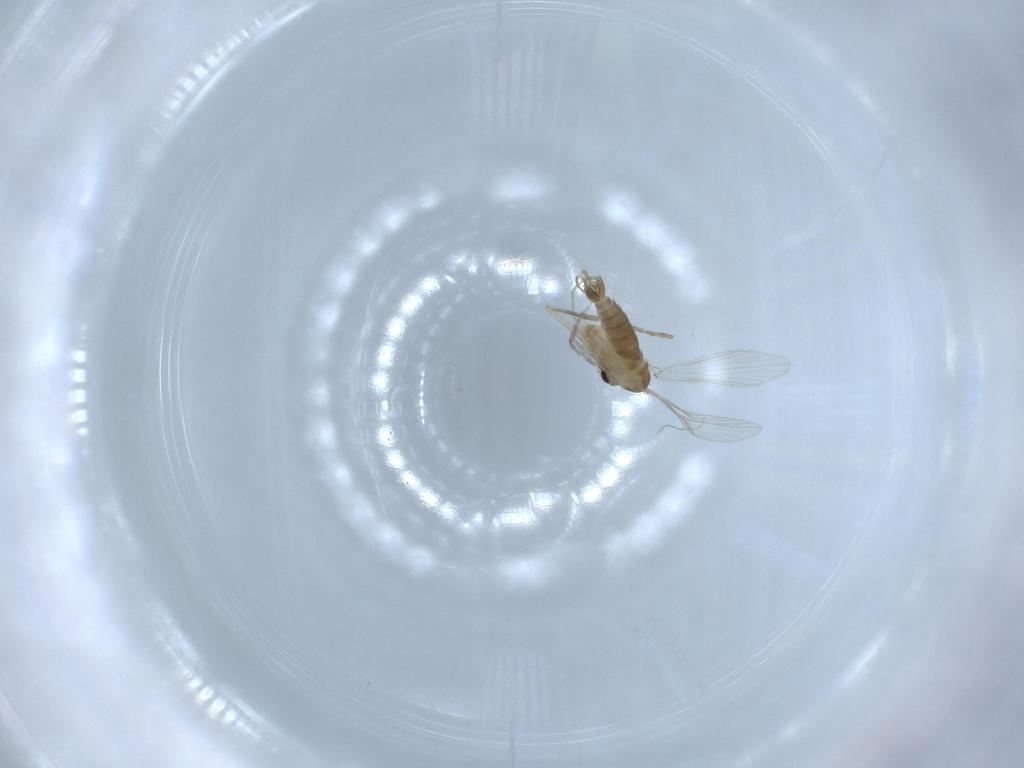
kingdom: Animalia
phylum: Arthropoda
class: Insecta
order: Diptera
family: Psychodidae
